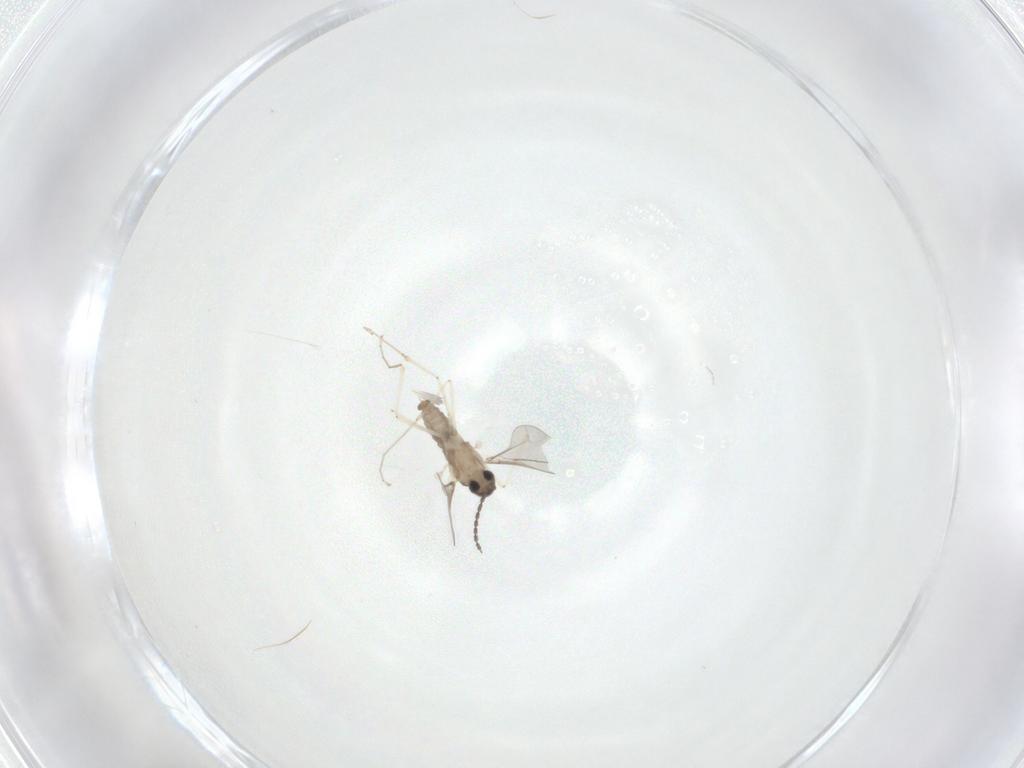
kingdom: Animalia
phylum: Arthropoda
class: Insecta
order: Diptera
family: Cecidomyiidae
